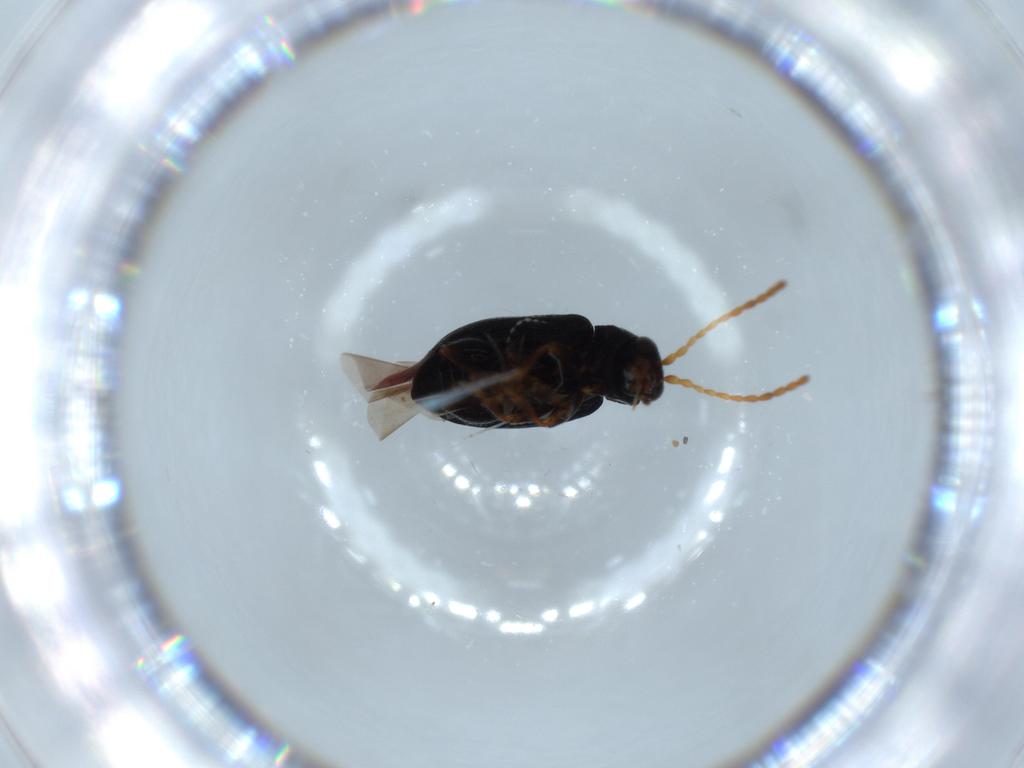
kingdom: Animalia
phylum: Arthropoda
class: Insecta
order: Coleoptera
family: Chrysomelidae
